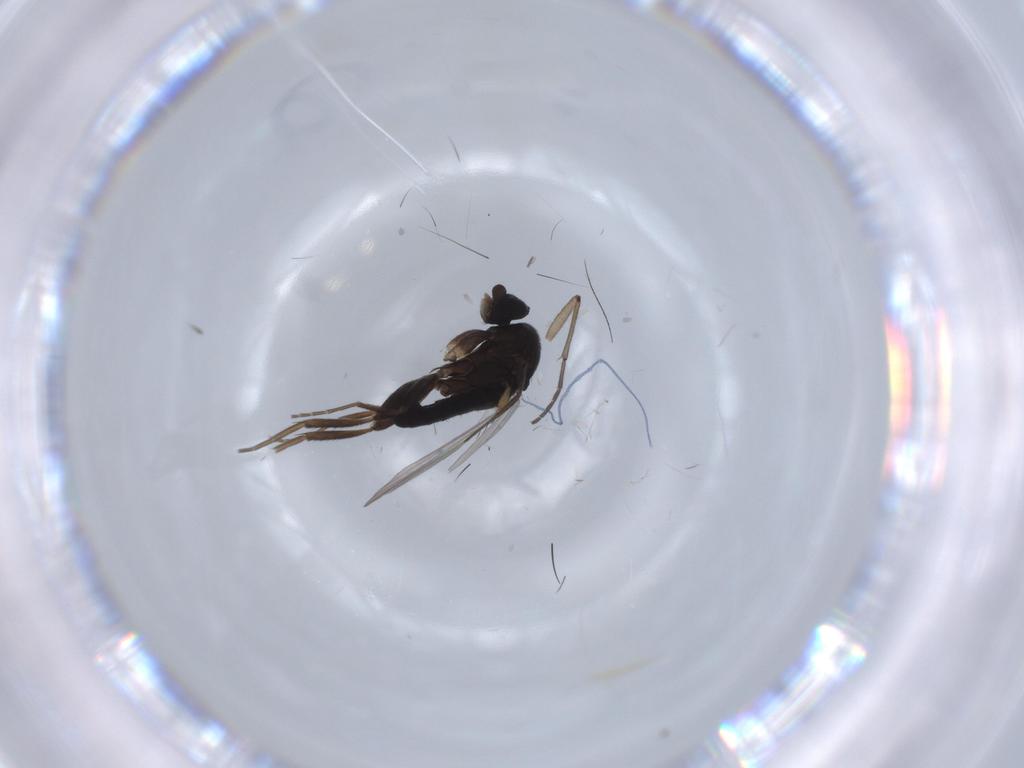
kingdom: Animalia
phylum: Arthropoda
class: Insecta
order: Diptera
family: Phoridae
